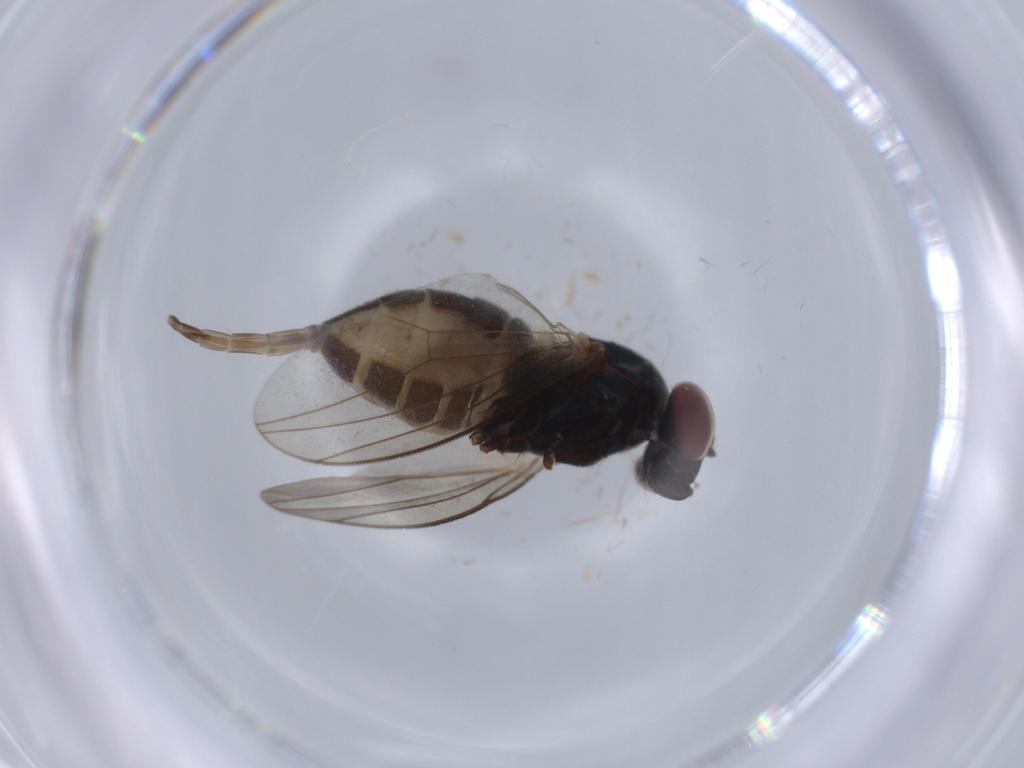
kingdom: Animalia
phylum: Arthropoda
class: Insecta
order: Diptera
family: Dolichopodidae
